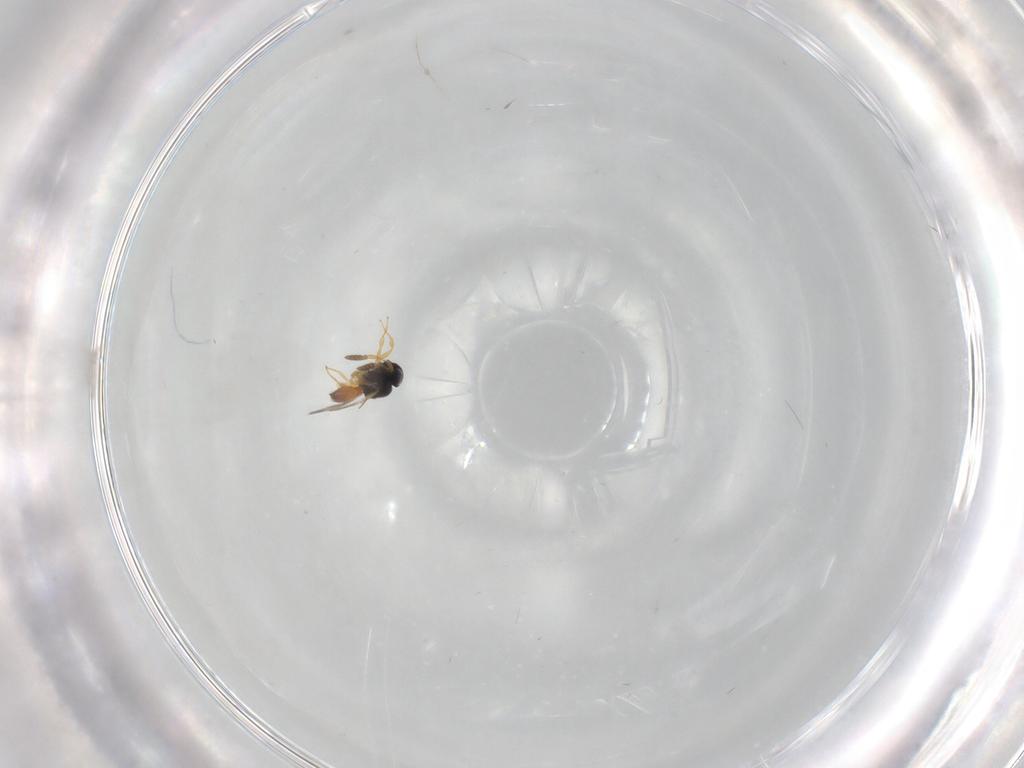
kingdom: Animalia
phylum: Arthropoda
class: Insecta
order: Hymenoptera
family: Scelionidae
